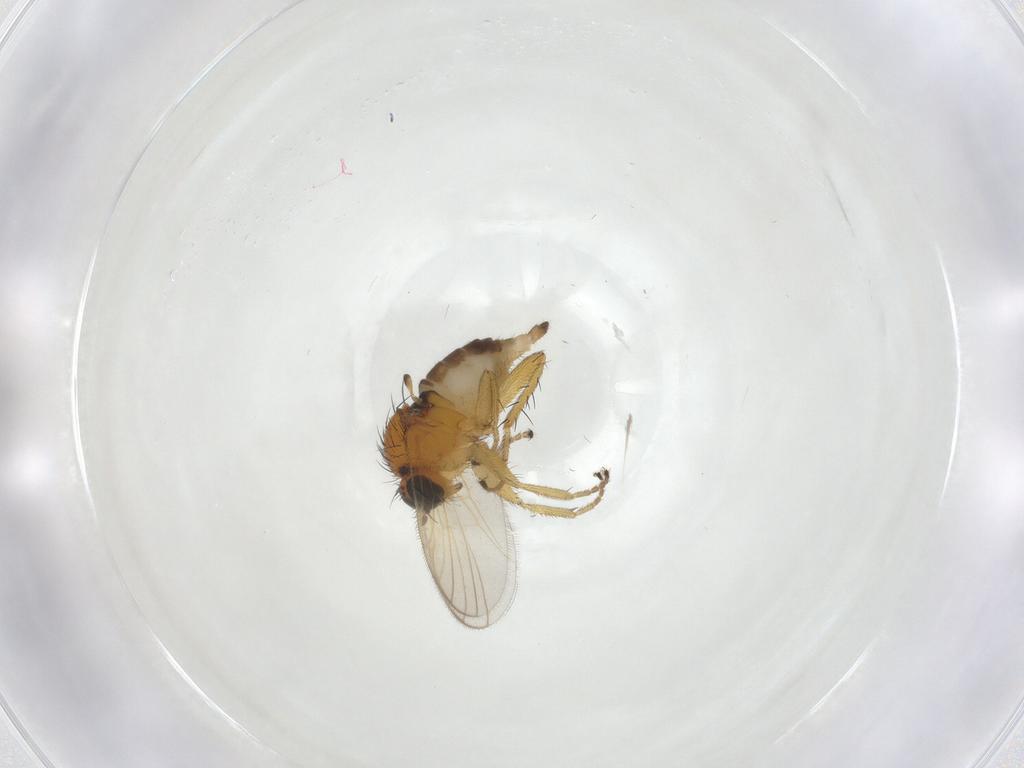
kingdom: Animalia
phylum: Arthropoda
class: Insecta
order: Diptera
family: Hybotidae
